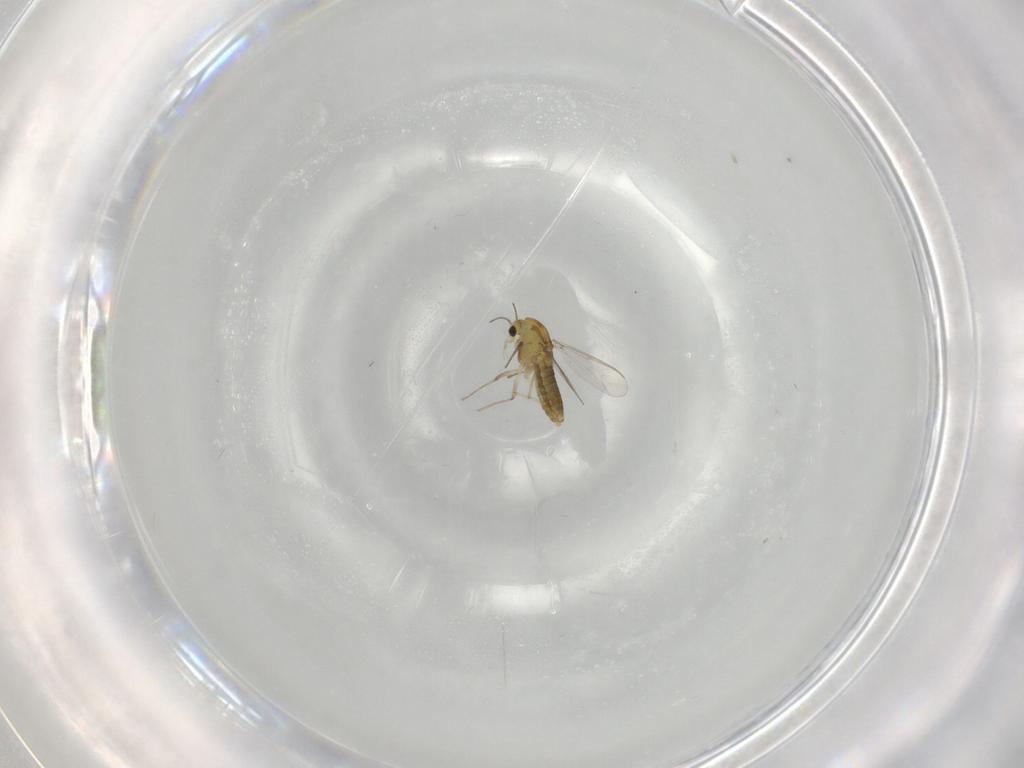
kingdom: Animalia
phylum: Arthropoda
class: Insecta
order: Diptera
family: Chironomidae
